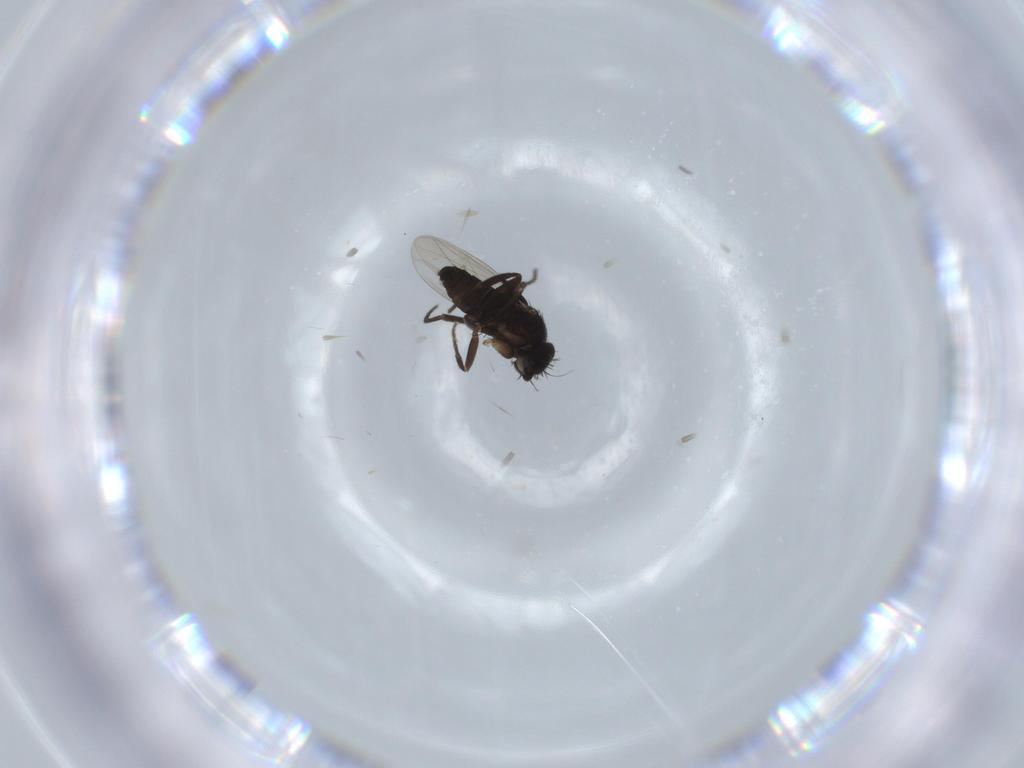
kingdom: Animalia
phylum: Arthropoda
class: Insecta
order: Diptera
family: Phoridae
